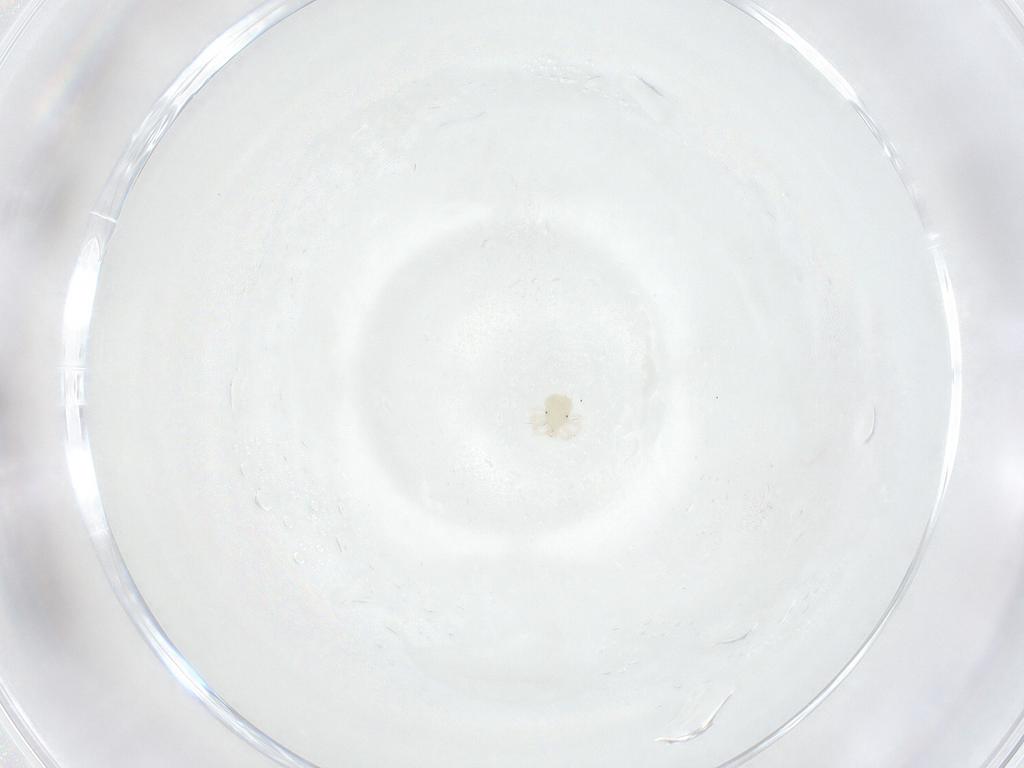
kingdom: Animalia
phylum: Arthropoda
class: Arachnida
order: Trombidiformes
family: Anystidae
